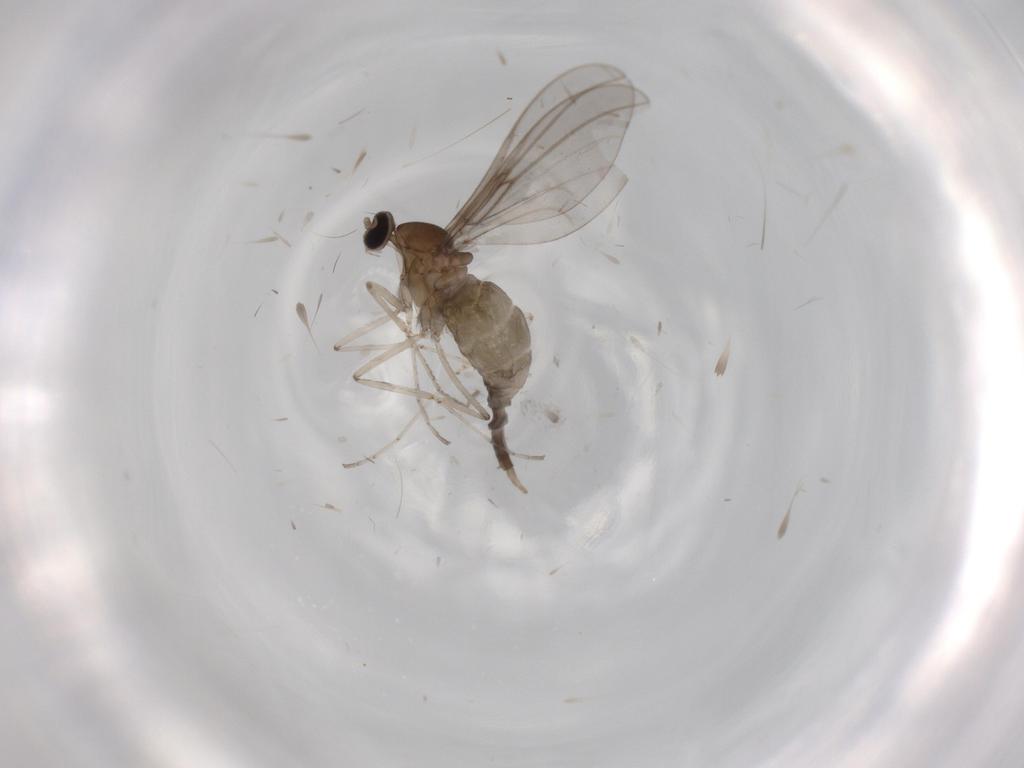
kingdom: Animalia
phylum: Arthropoda
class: Insecta
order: Diptera
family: Cecidomyiidae
